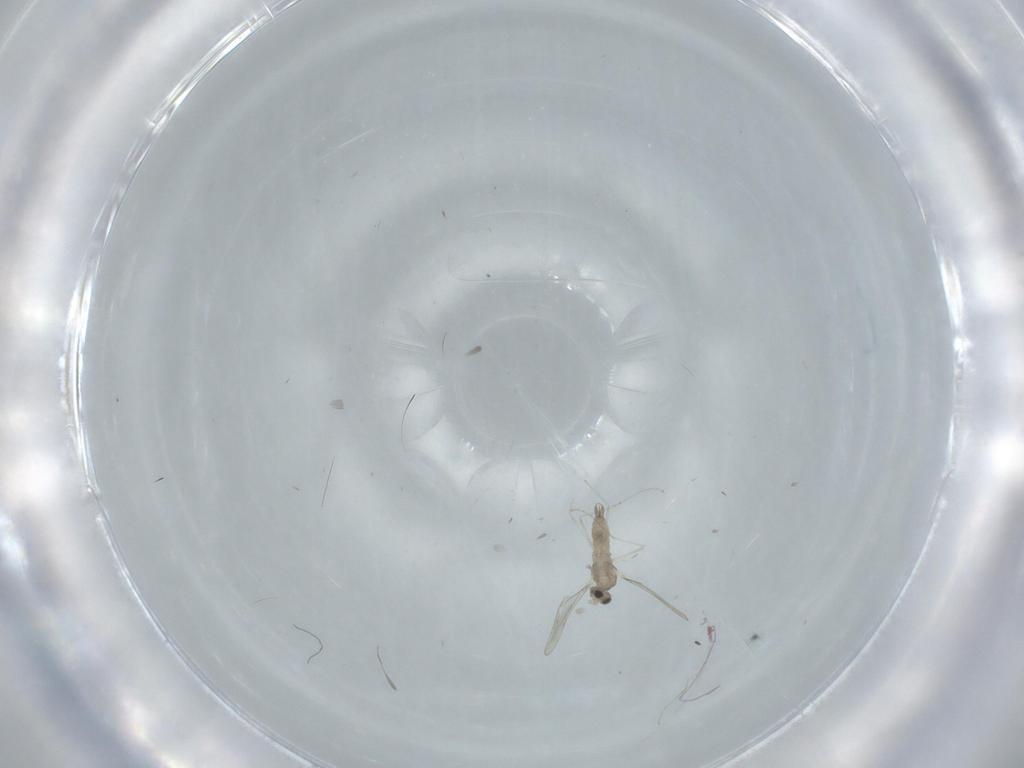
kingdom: Animalia
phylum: Arthropoda
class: Insecta
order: Diptera
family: Cecidomyiidae
